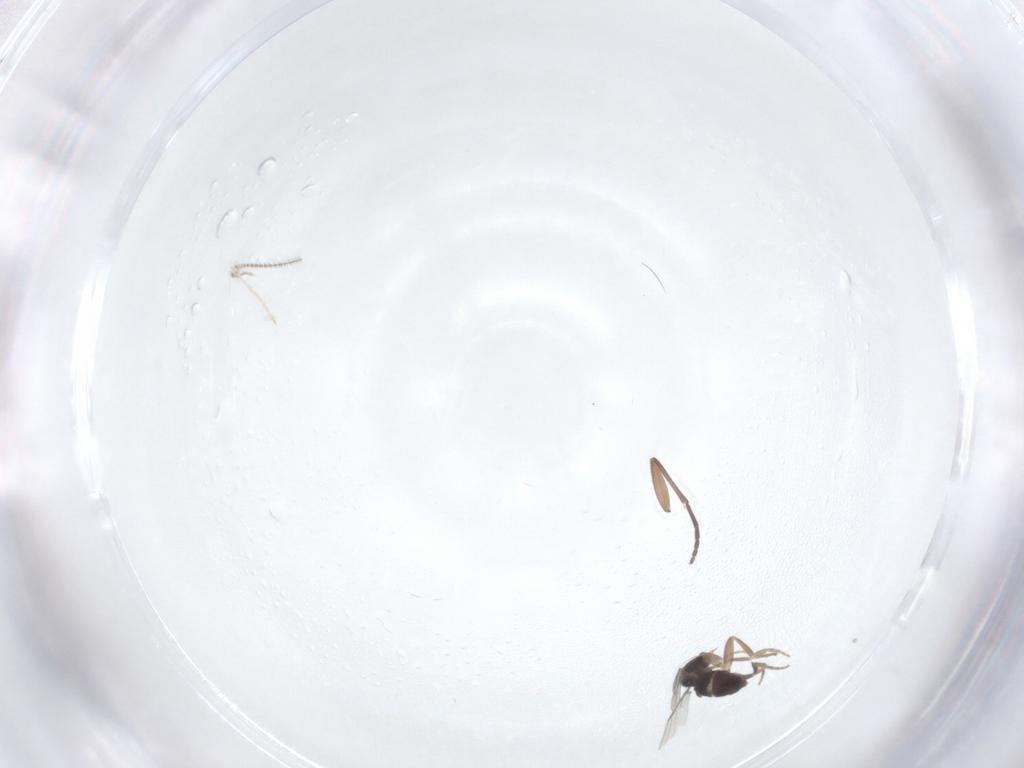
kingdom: Animalia
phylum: Arthropoda
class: Insecta
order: Diptera
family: Phoridae
